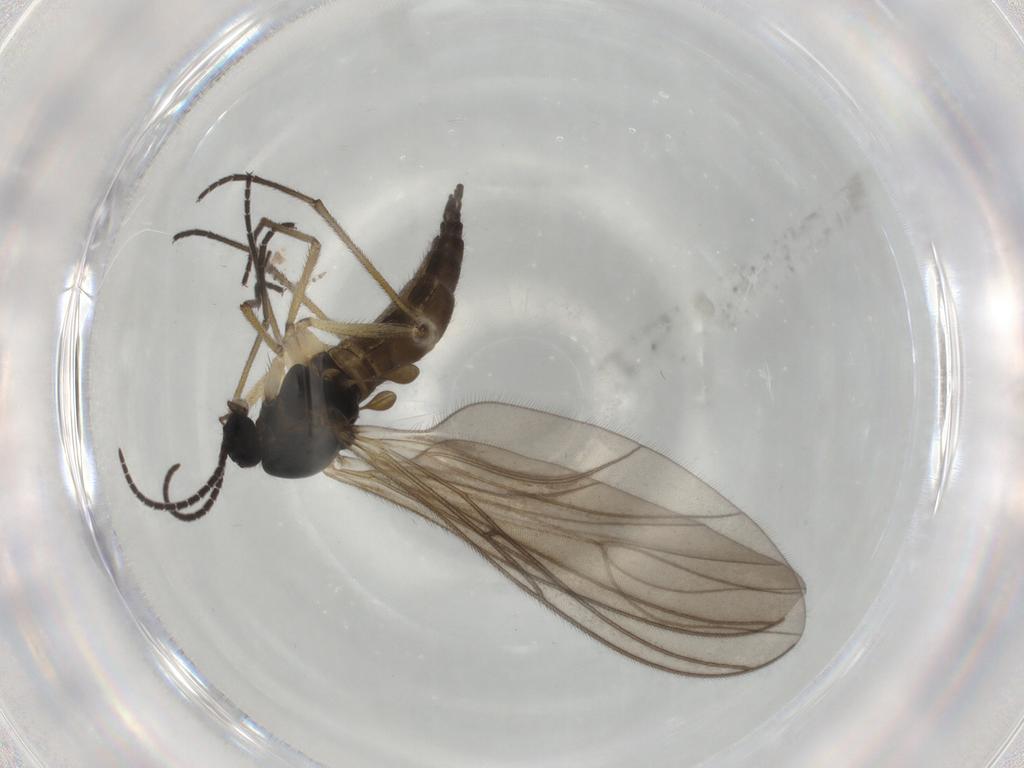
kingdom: Animalia
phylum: Arthropoda
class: Insecta
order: Diptera
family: Sciaridae
